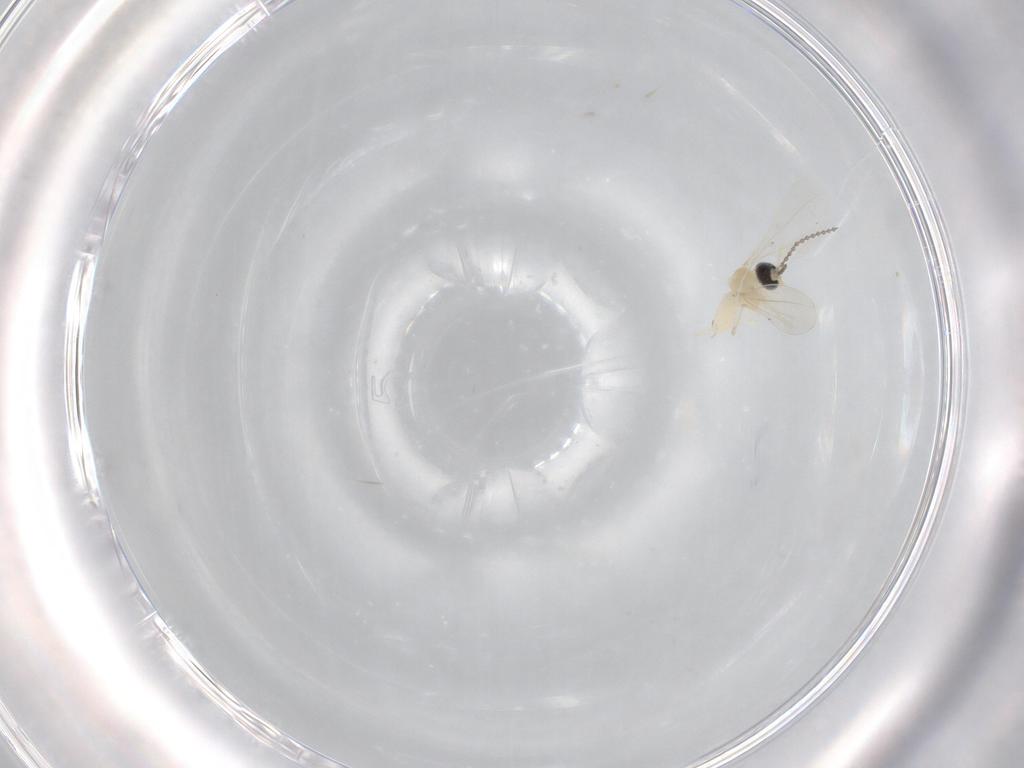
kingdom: Animalia
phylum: Arthropoda
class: Insecta
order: Diptera
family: Cecidomyiidae
